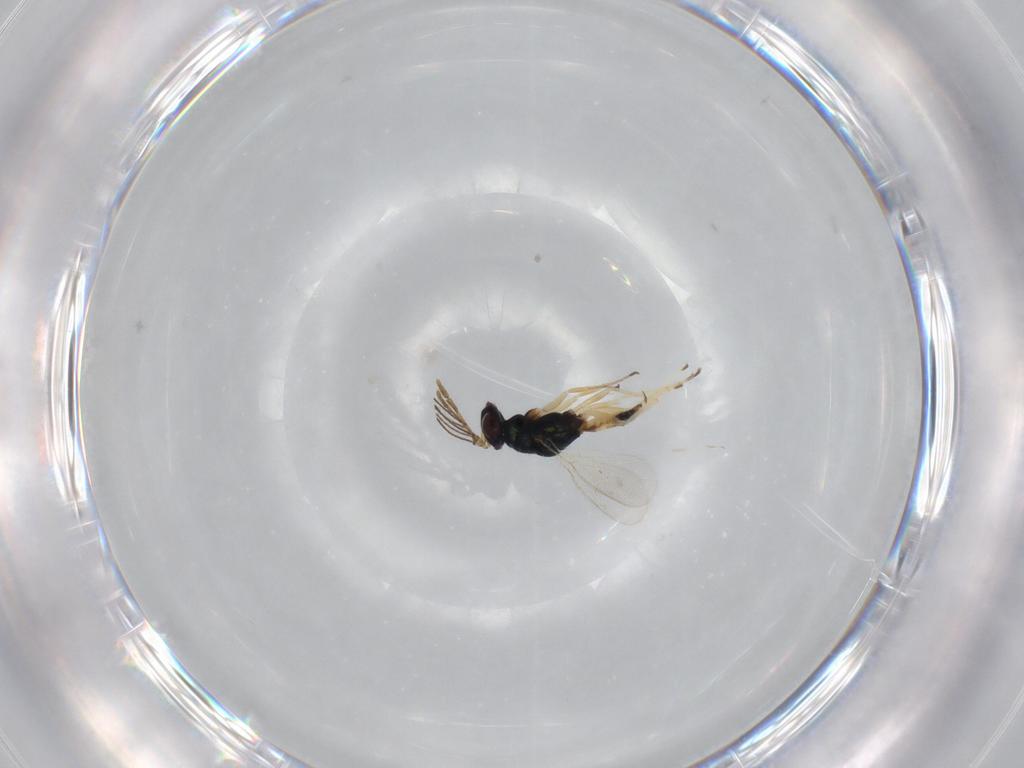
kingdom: Animalia
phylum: Arthropoda
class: Insecta
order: Hymenoptera
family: Eulophidae
